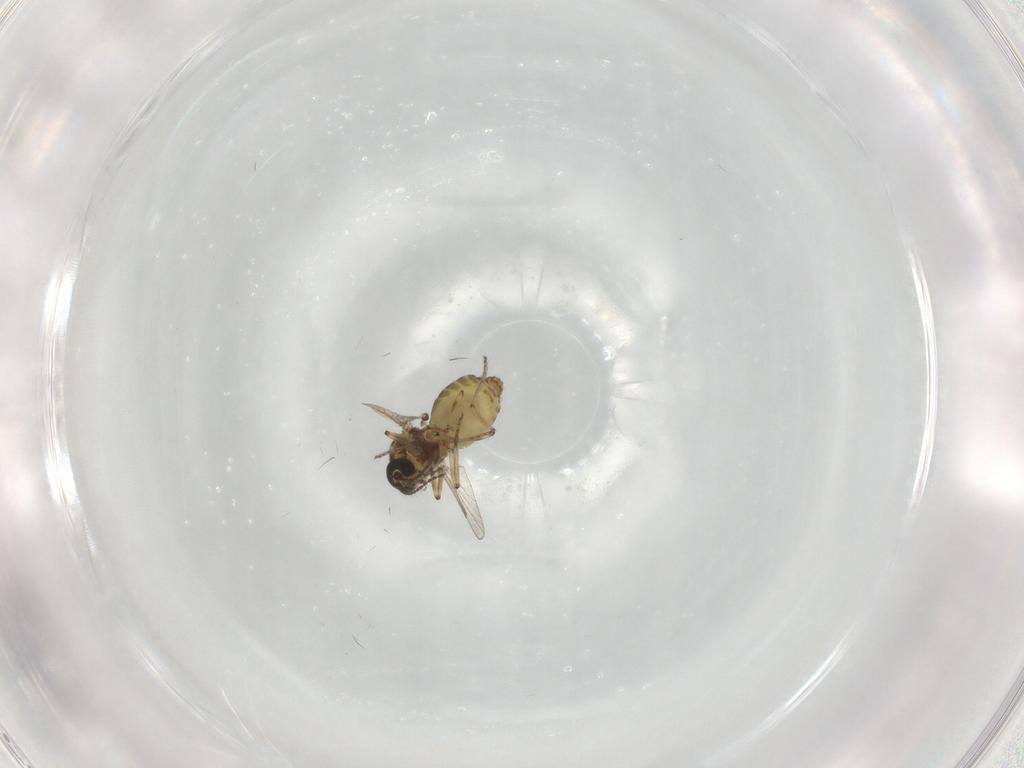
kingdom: Animalia
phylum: Arthropoda
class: Insecta
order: Diptera
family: Ceratopogonidae
